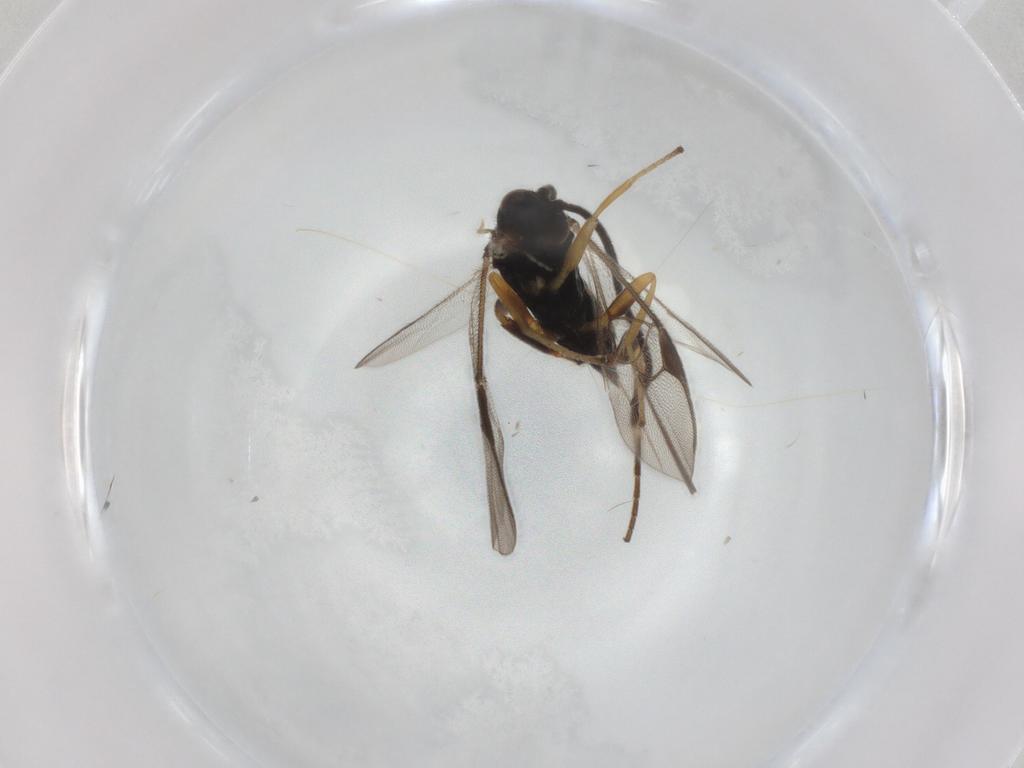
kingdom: Animalia
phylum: Arthropoda
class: Insecta
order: Hymenoptera
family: Braconidae
